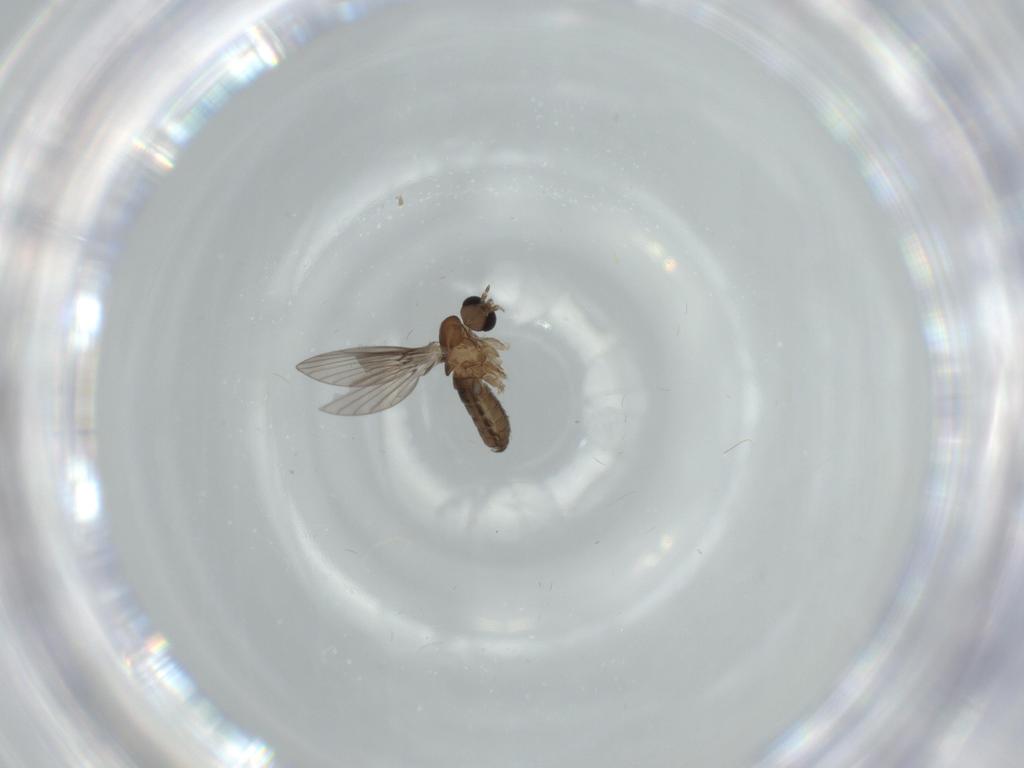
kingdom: Animalia
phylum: Arthropoda
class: Insecta
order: Diptera
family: Psychodidae
